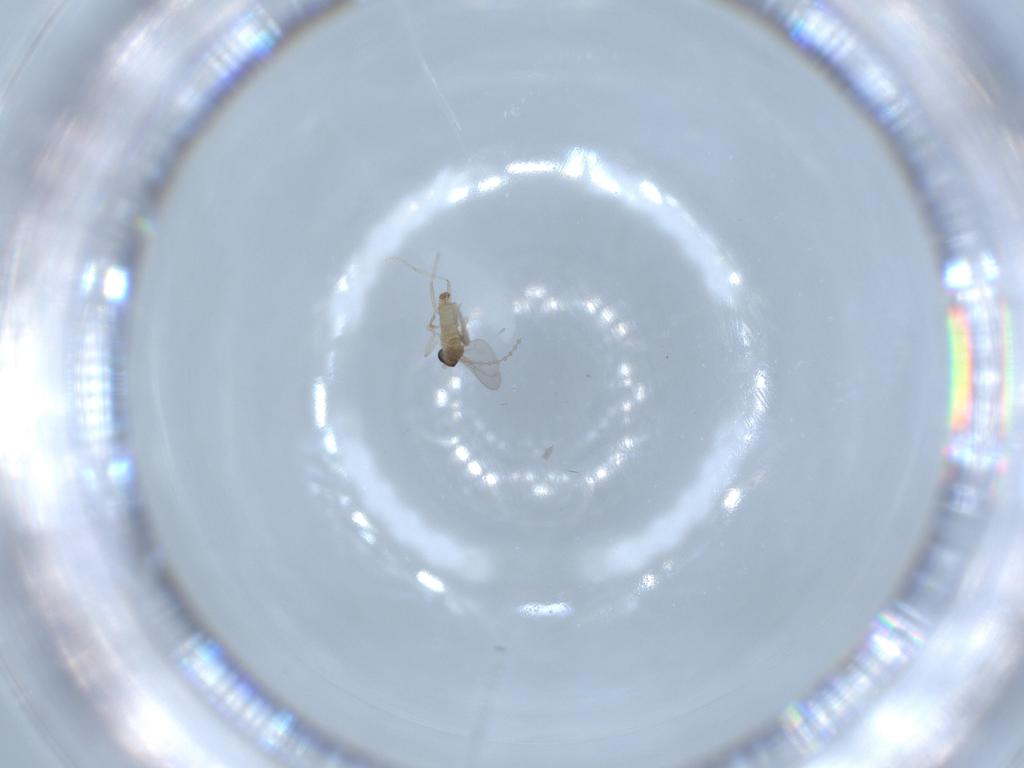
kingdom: Animalia
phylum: Arthropoda
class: Insecta
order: Diptera
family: Cecidomyiidae
